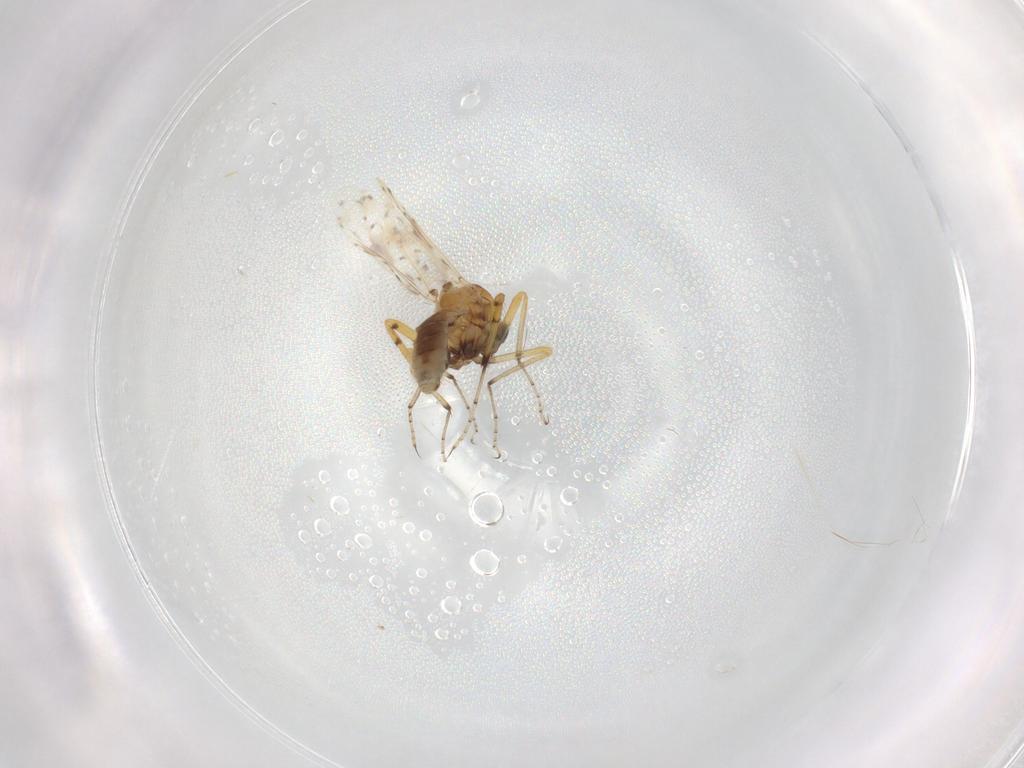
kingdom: Animalia
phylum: Arthropoda
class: Insecta
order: Diptera
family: Ceratopogonidae
